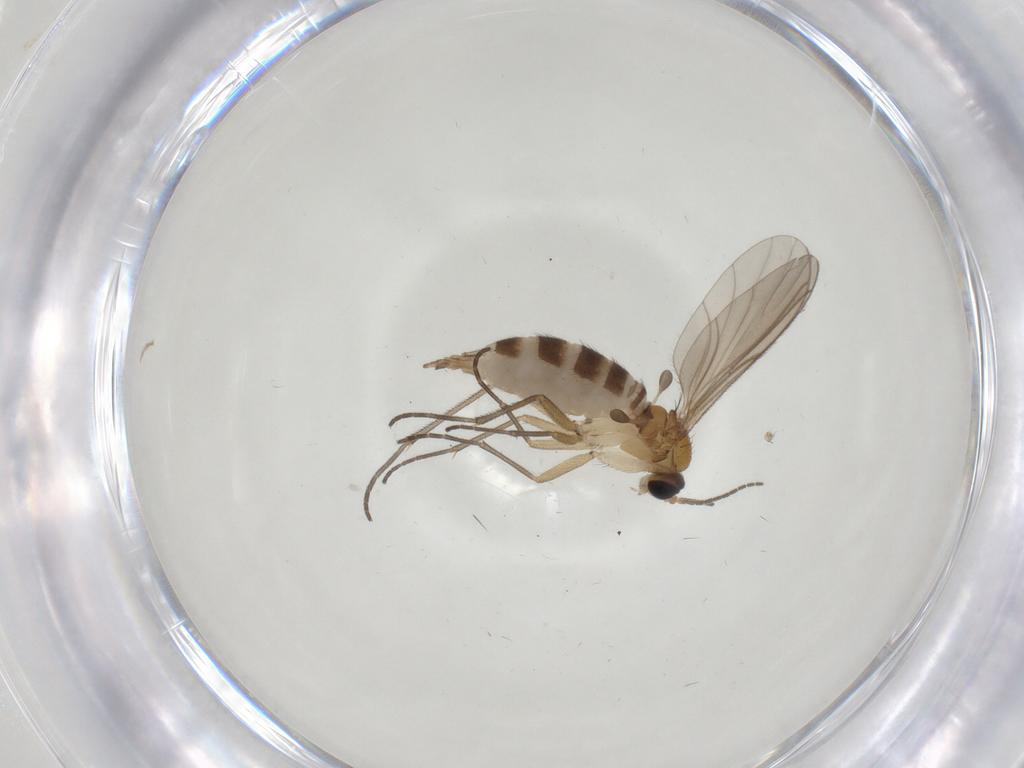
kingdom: Animalia
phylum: Arthropoda
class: Insecta
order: Diptera
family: Sciaridae
